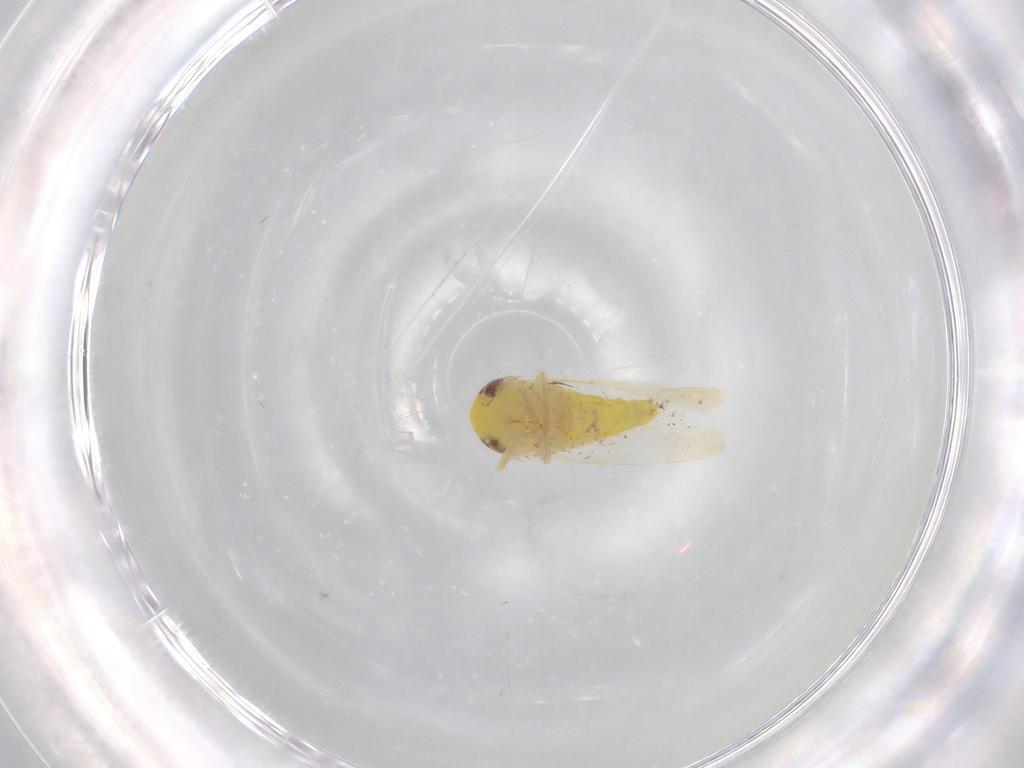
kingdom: Animalia
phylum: Arthropoda
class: Insecta
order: Hemiptera
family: Cicadellidae
